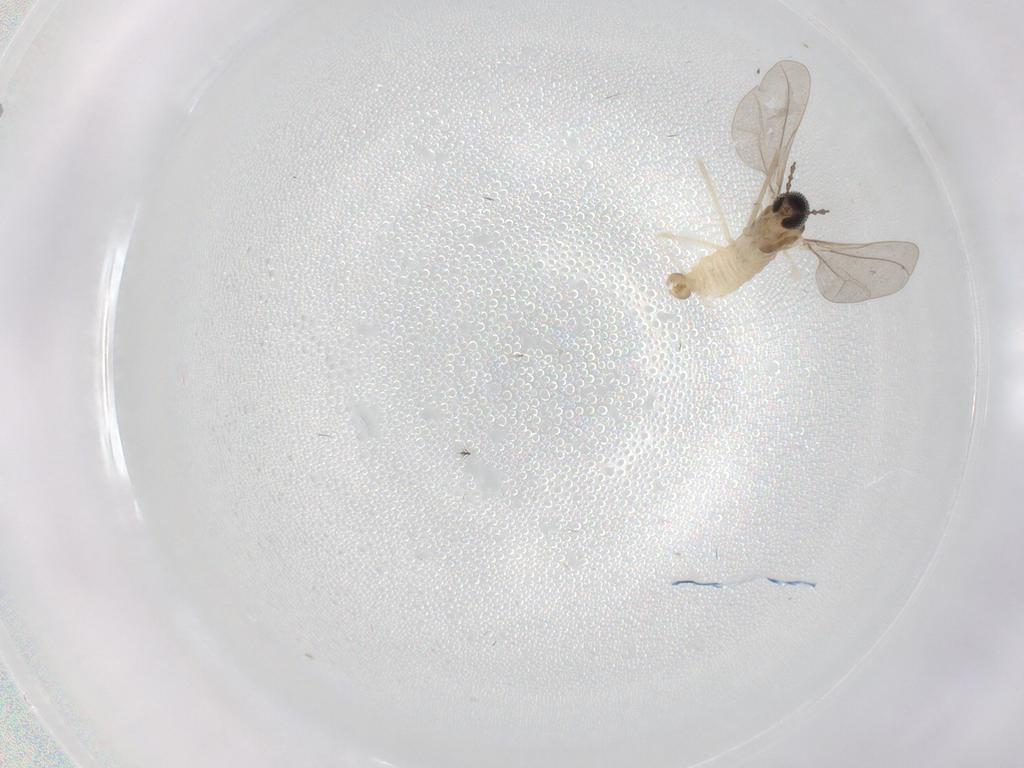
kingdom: Animalia
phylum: Arthropoda
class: Insecta
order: Diptera
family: Cecidomyiidae
